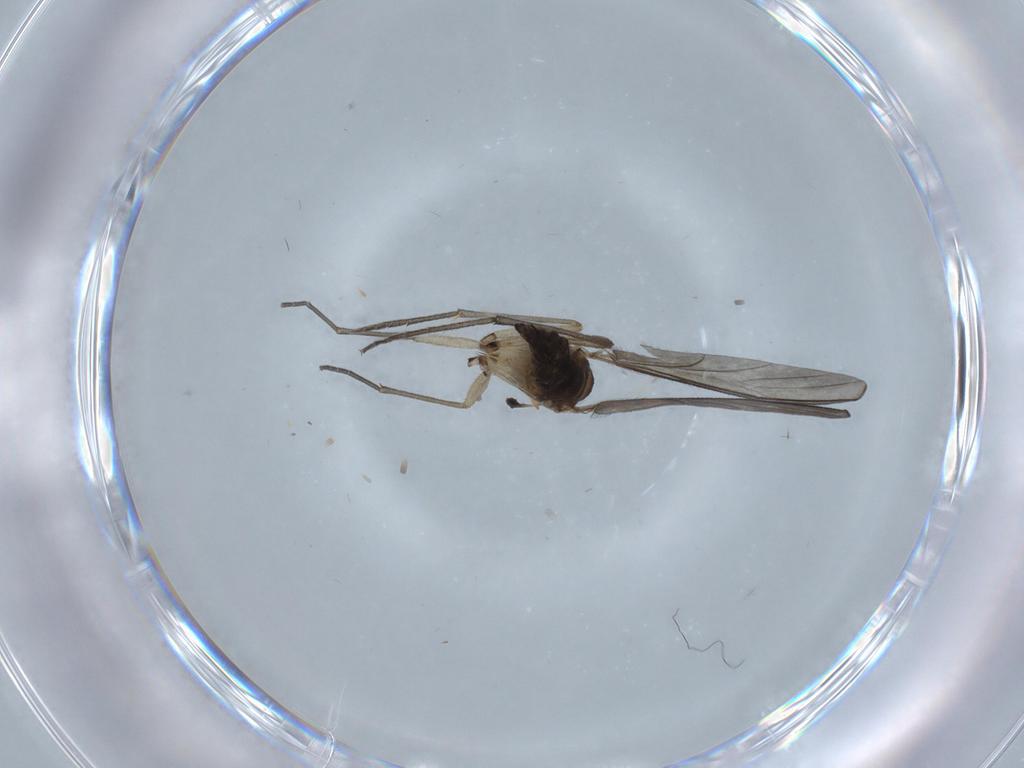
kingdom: Animalia
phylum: Arthropoda
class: Insecta
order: Diptera
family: Sciaridae
